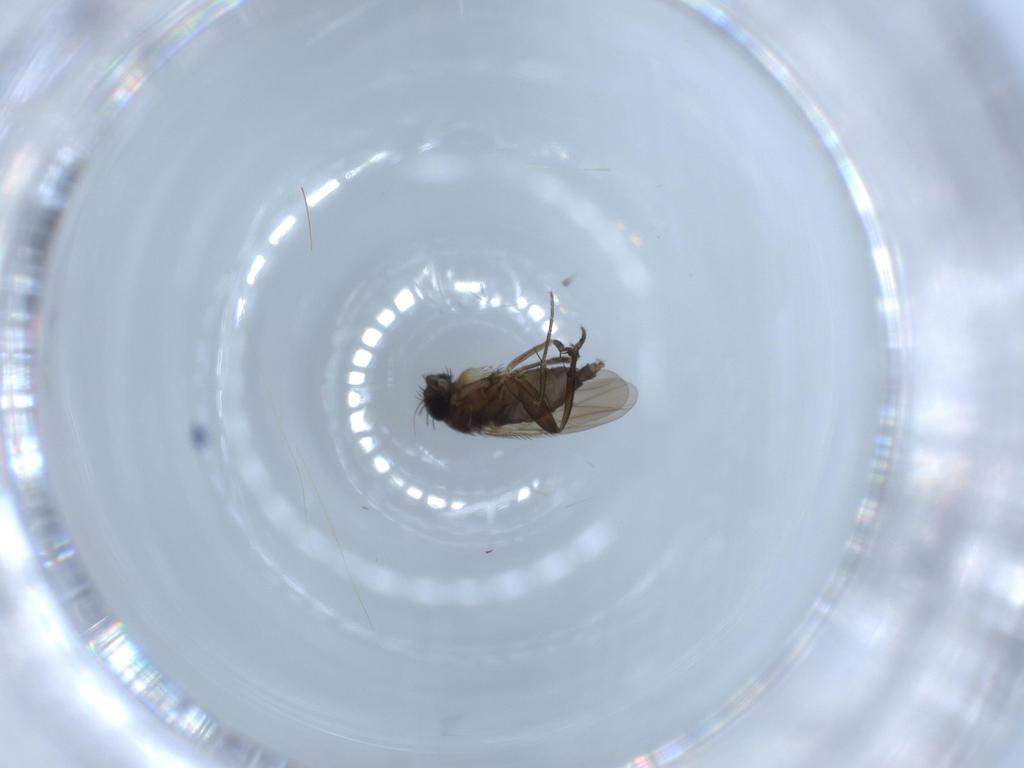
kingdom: Animalia
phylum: Arthropoda
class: Insecta
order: Diptera
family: Phoridae
